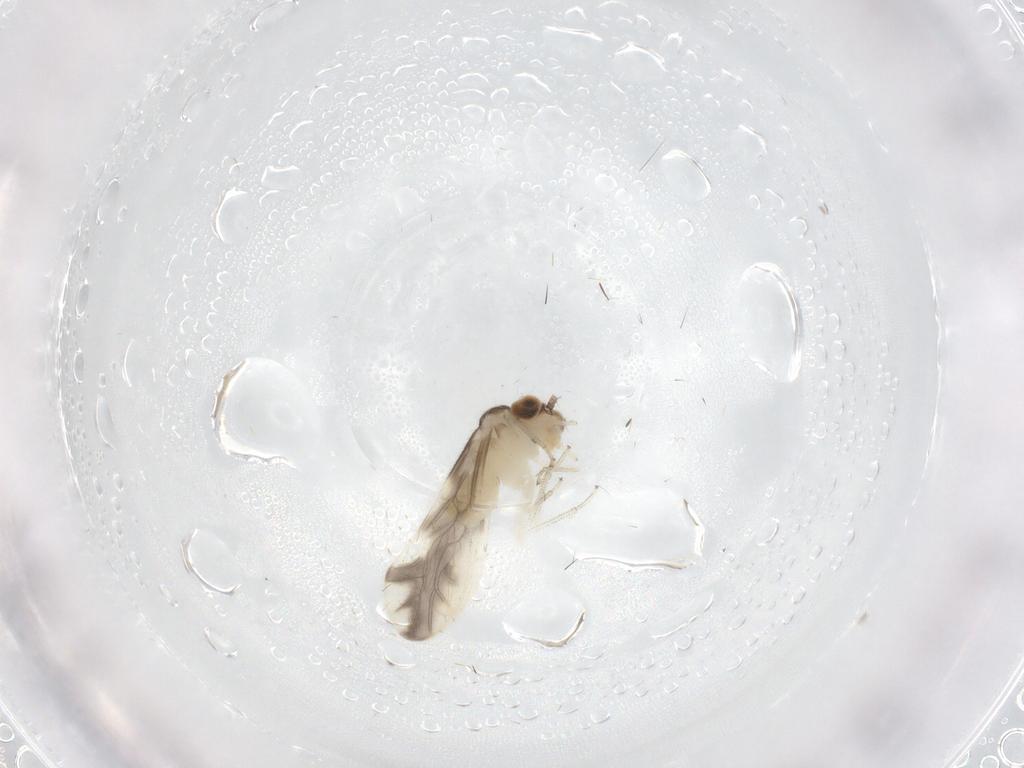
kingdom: Animalia
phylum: Arthropoda
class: Insecta
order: Psocodea
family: Caeciliusidae
